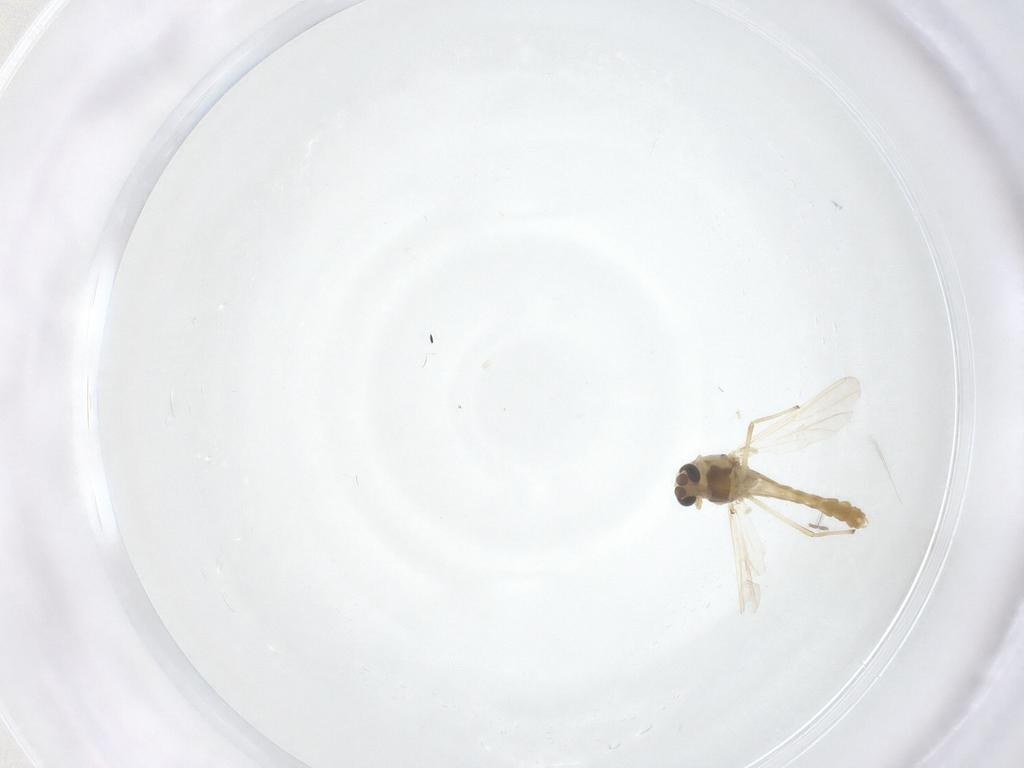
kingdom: Animalia
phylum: Arthropoda
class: Insecta
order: Diptera
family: Chironomidae
